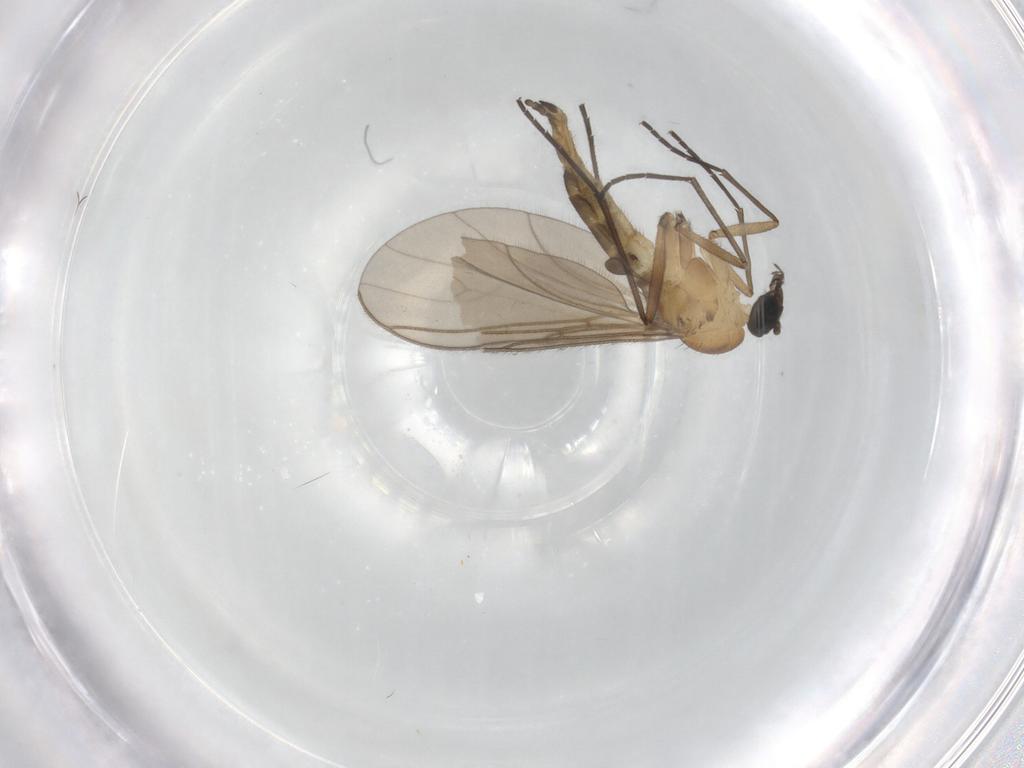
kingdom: Animalia
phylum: Arthropoda
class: Insecta
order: Diptera
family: Sciaridae
